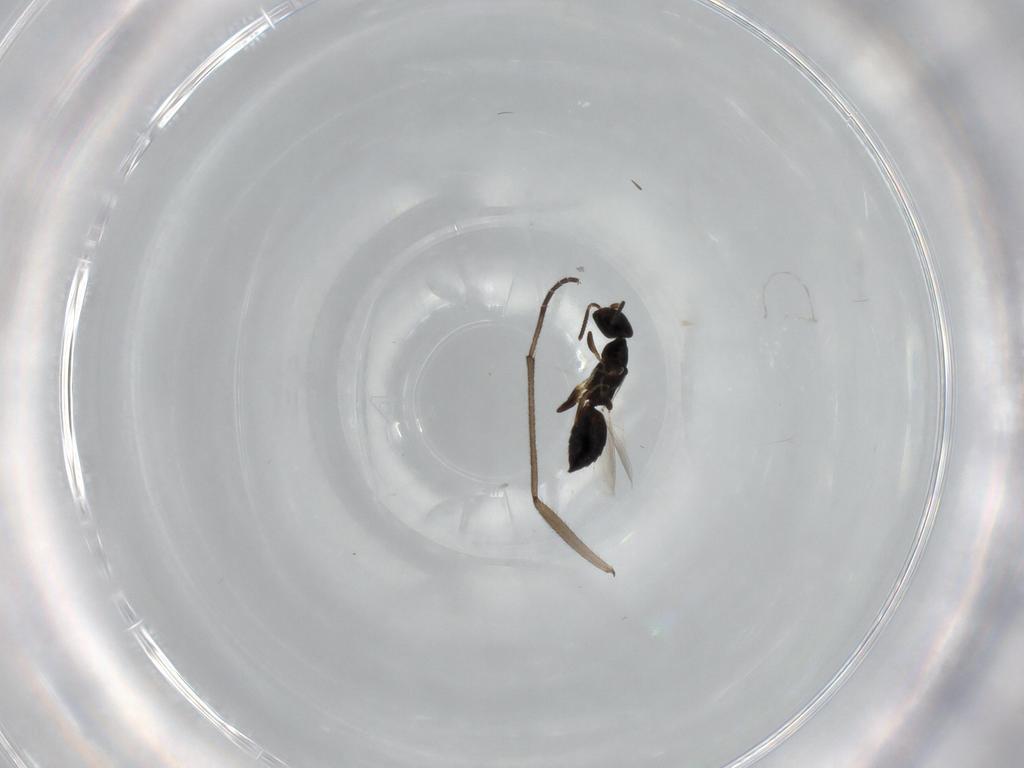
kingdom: Animalia
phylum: Arthropoda
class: Insecta
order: Hymenoptera
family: Bethylidae
